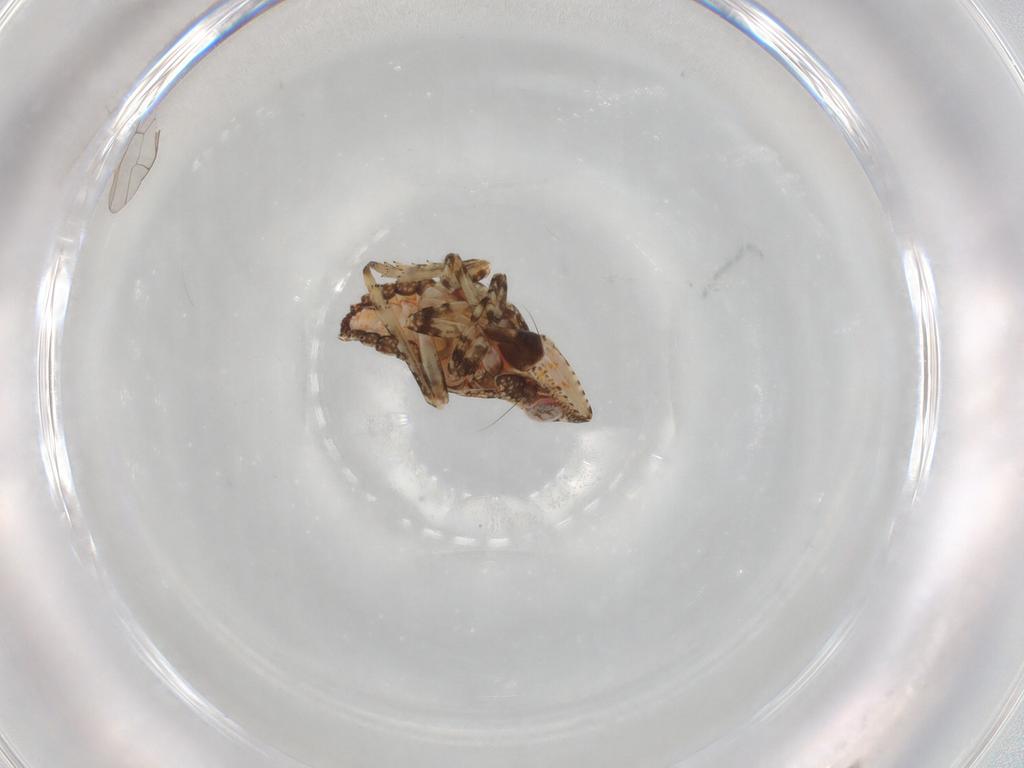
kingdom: Animalia
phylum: Arthropoda
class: Insecta
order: Hemiptera
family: Tropiduchidae
